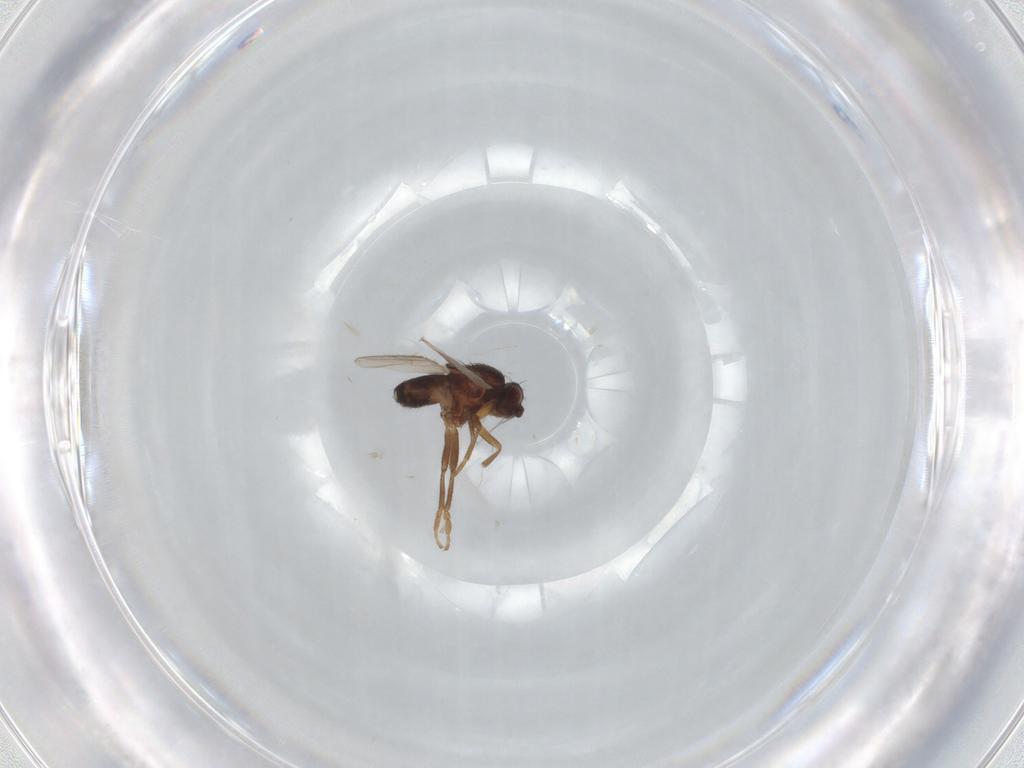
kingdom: Animalia
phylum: Arthropoda
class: Insecta
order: Diptera
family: Sphaeroceridae
